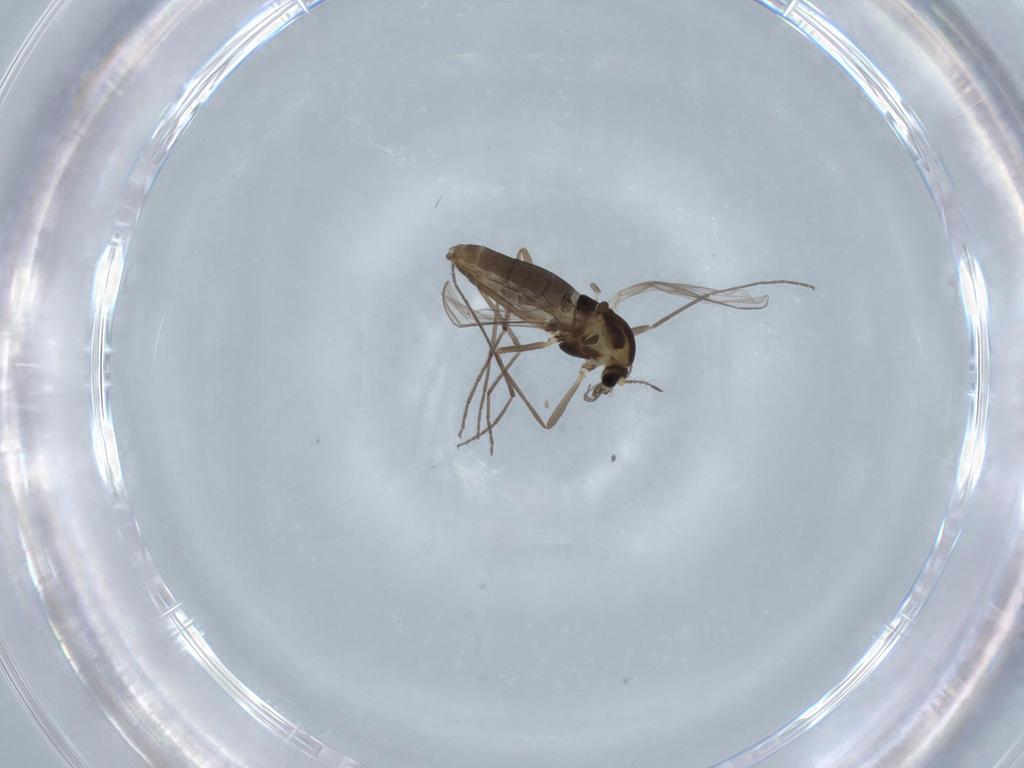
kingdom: Animalia
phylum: Arthropoda
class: Insecta
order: Diptera
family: Chironomidae
